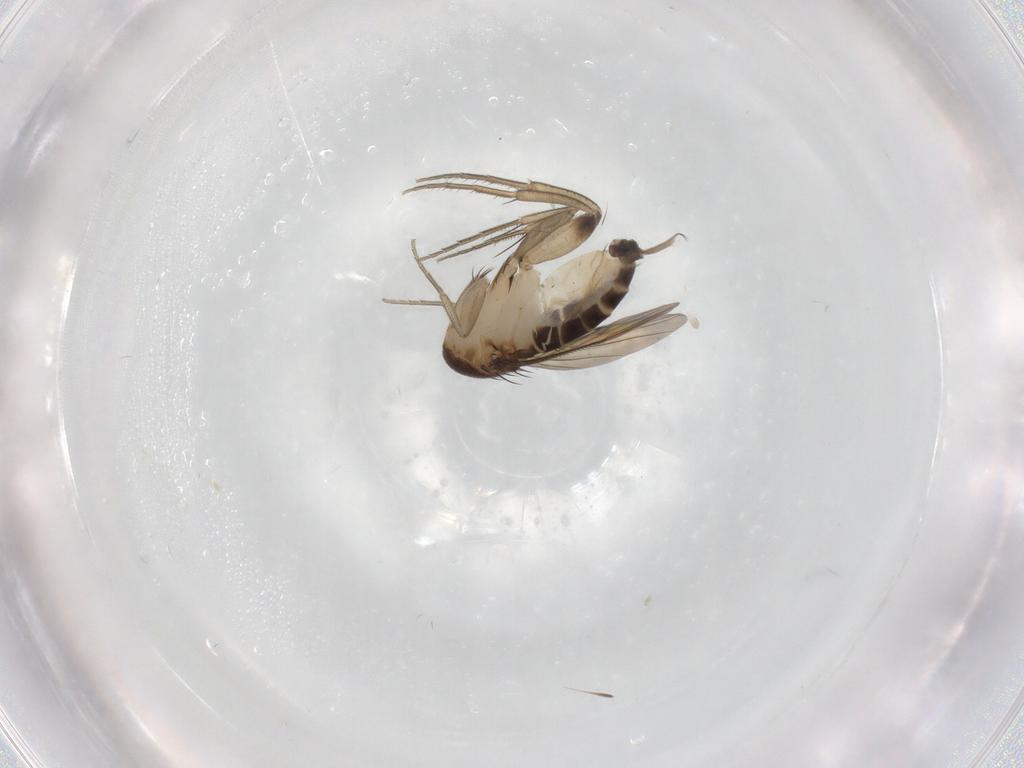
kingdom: Animalia
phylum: Arthropoda
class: Insecta
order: Diptera
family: Phoridae
